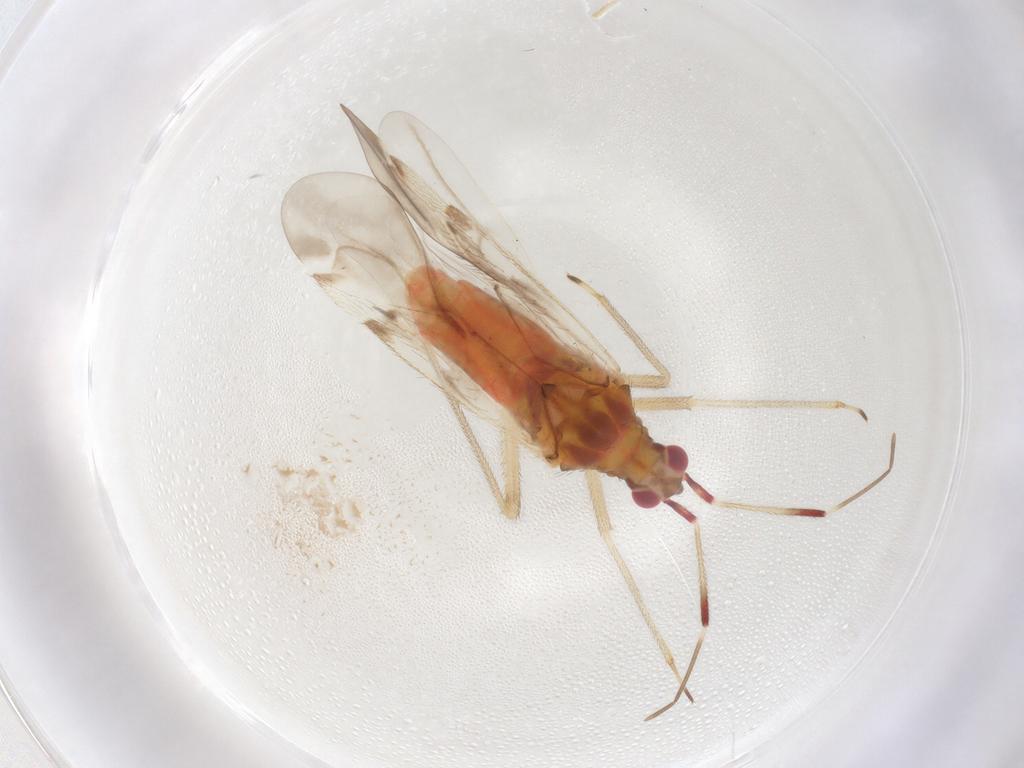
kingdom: Animalia
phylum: Arthropoda
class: Insecta
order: Hemiptera
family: Miridae
